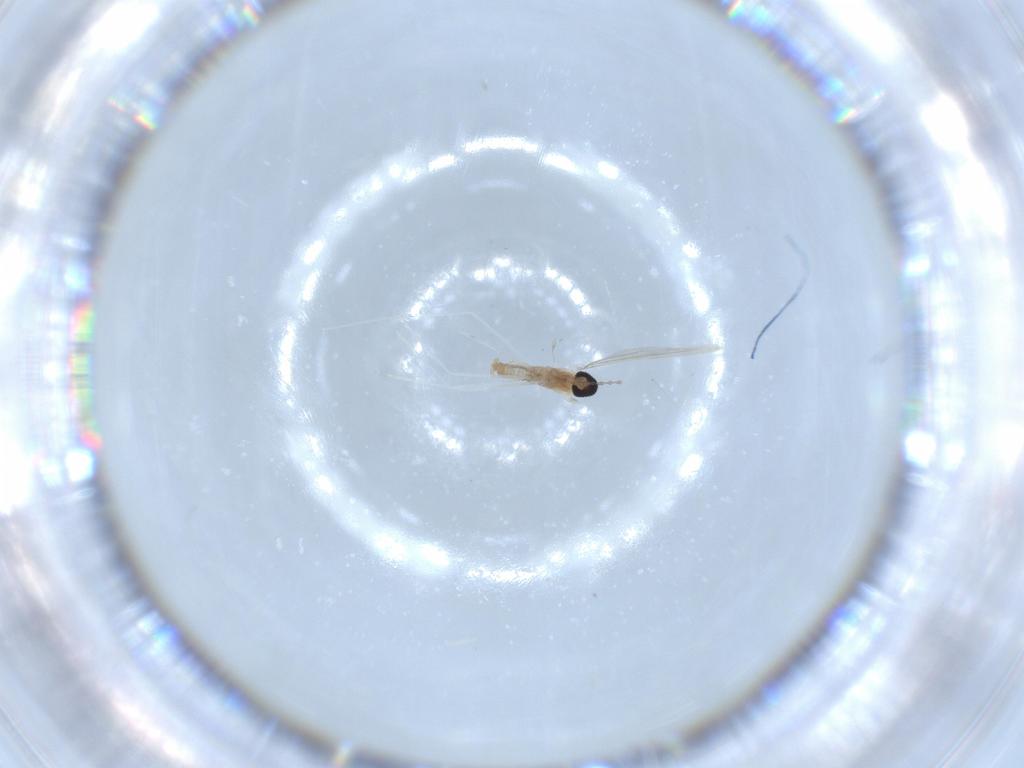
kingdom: Animalia
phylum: Arthropoda
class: Insecta
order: Diptera
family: Cecidomyiidae
